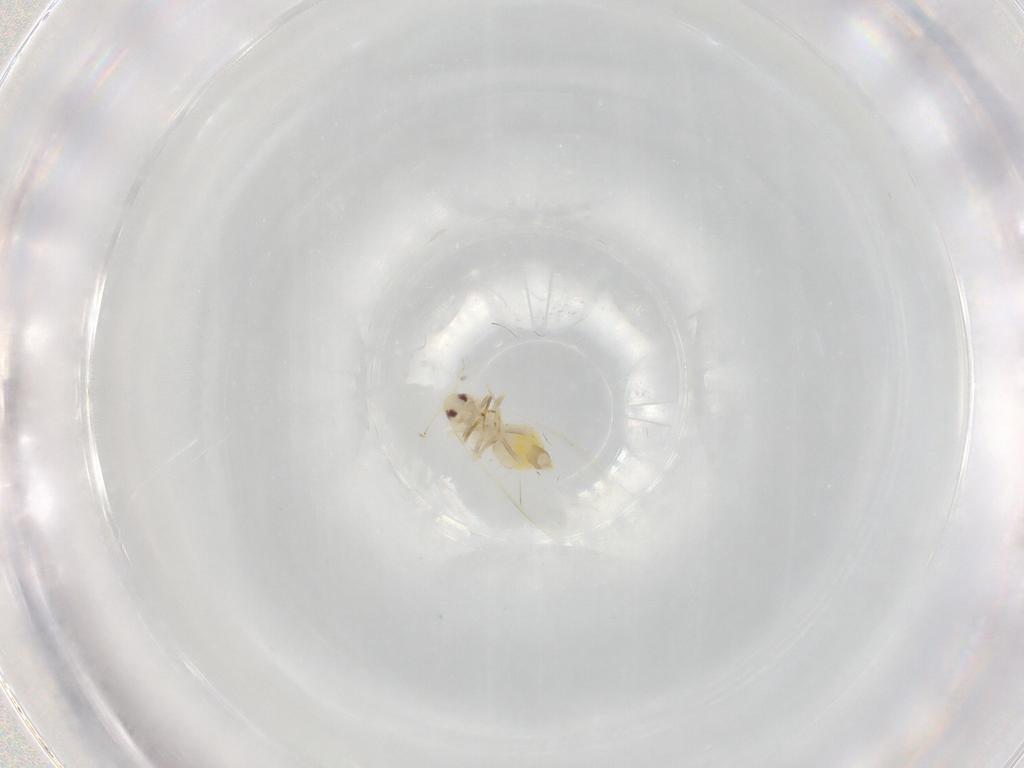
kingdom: Animalia
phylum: Arthropoda
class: Insecta
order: Hemiptera
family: Aleyrodidae
